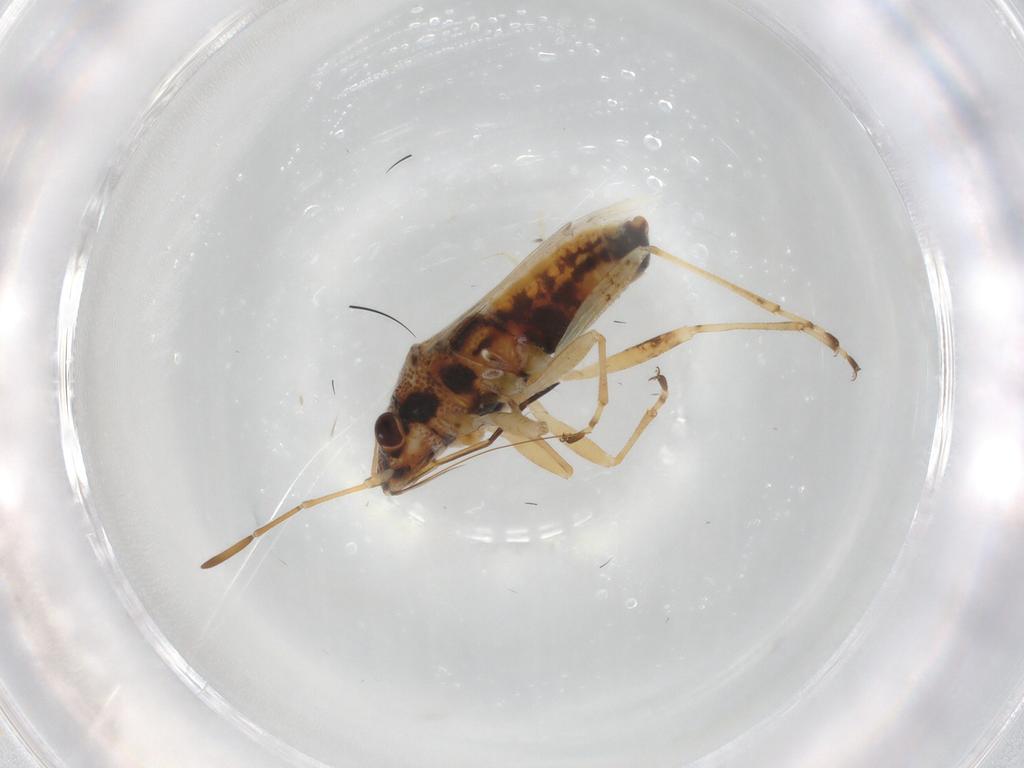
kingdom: Animalia
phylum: Arthropoda
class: Insecta
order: Hemiptera
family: Lygaeidae
